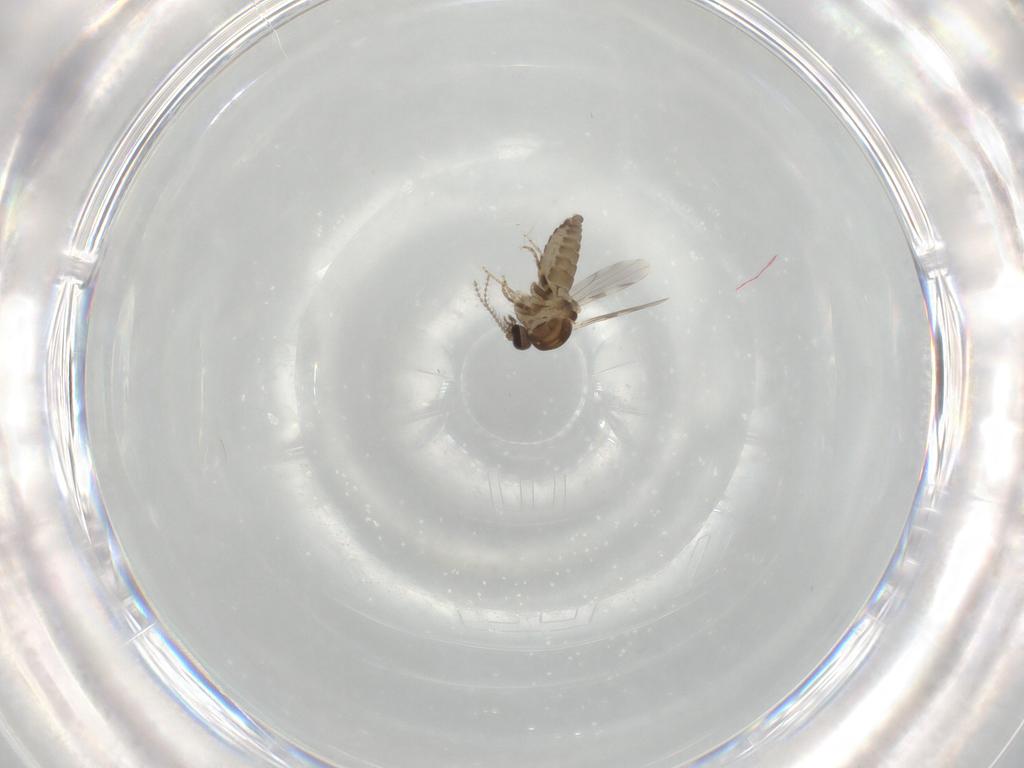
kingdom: Animalia
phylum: Arthropoda
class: Insecta
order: Diptera
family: Ceratopogonidae
